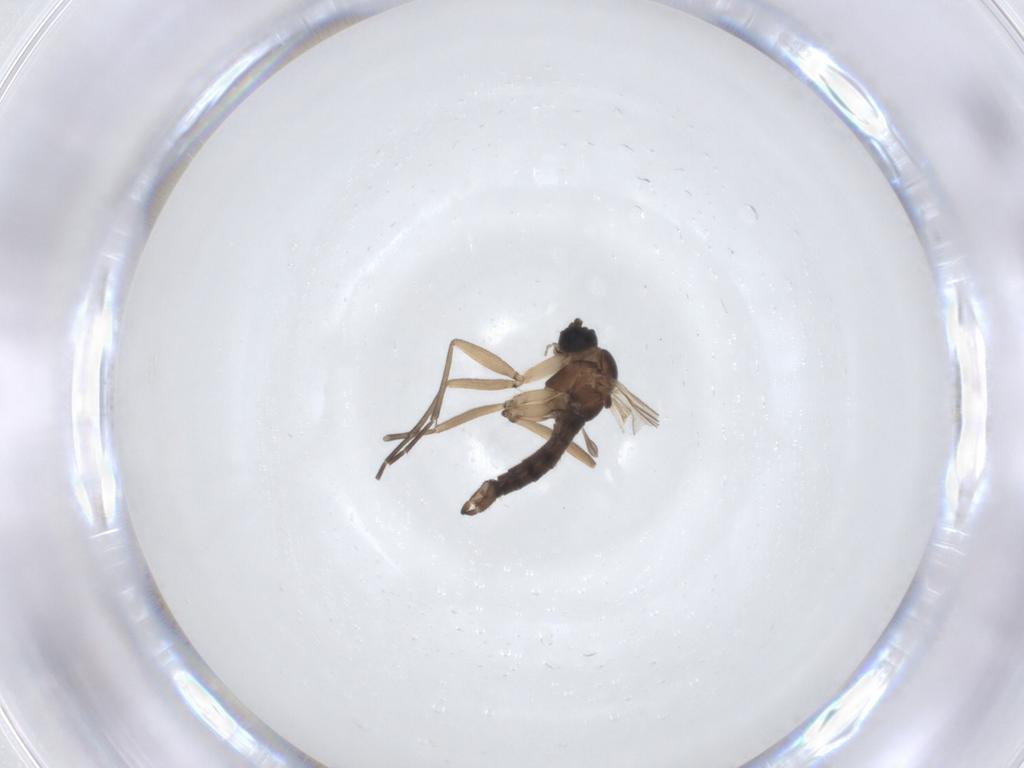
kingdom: Animalia
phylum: Arthropoda
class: Insecta
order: Diptera
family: Sciaridae
